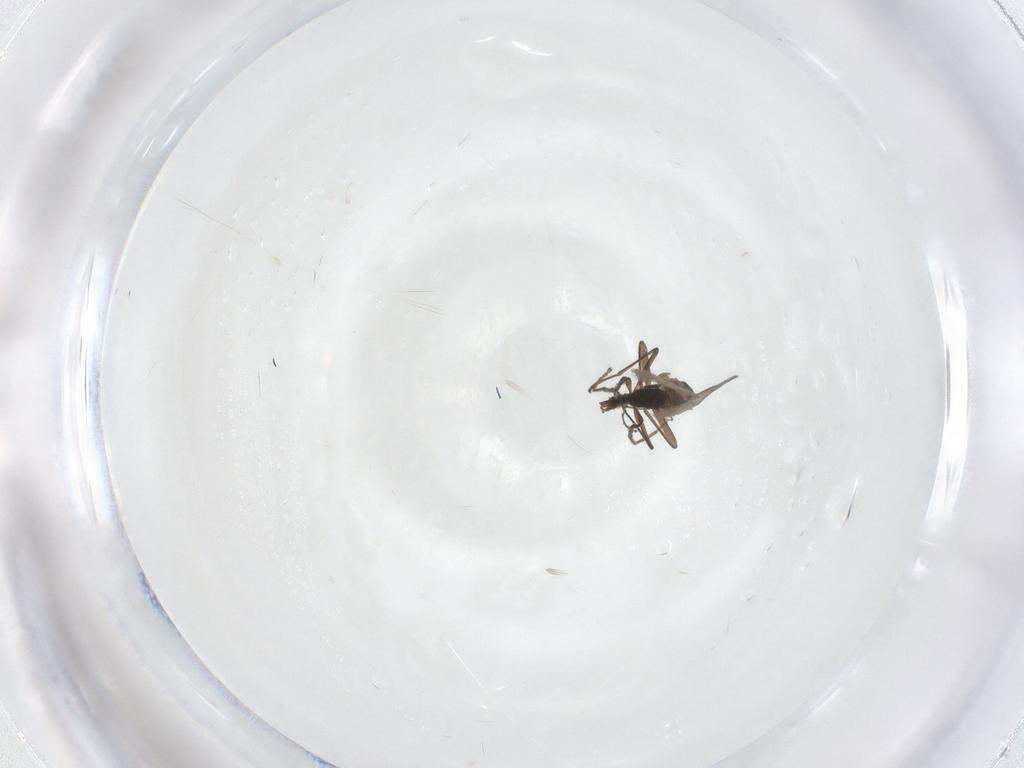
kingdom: Animalia
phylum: Arthropoda
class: Insecta
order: Diptera
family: Cecidomyiidae
